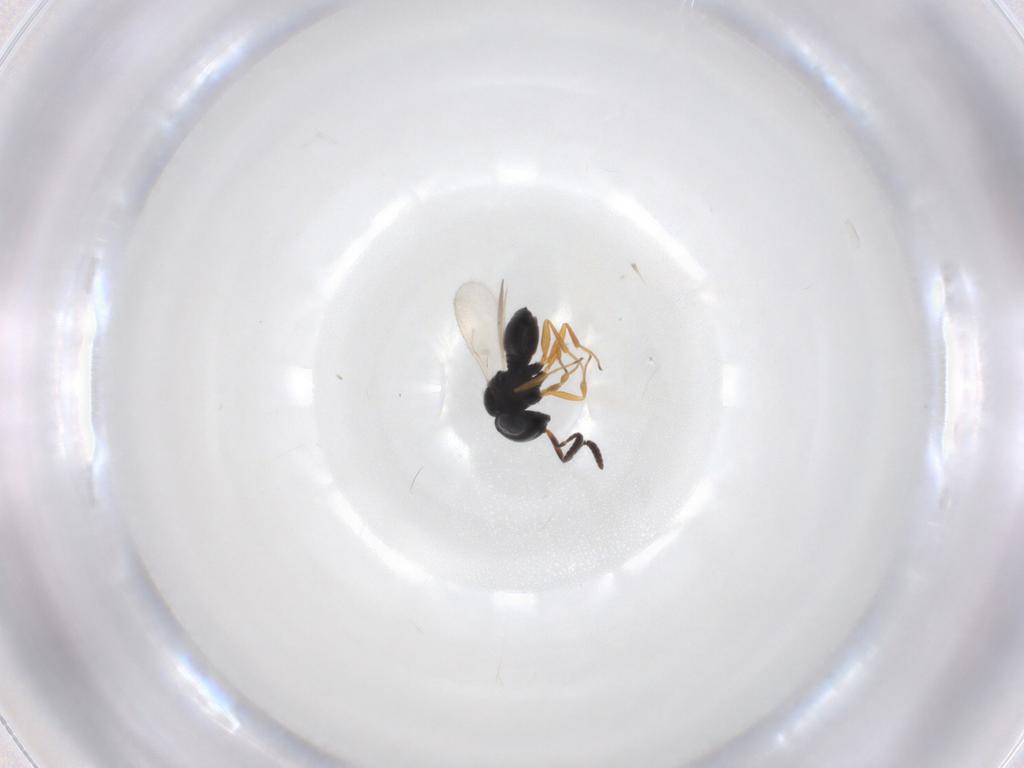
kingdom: Animalia
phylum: Arthropoda
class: Insecta
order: Hymenoptera
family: Scelionidae
